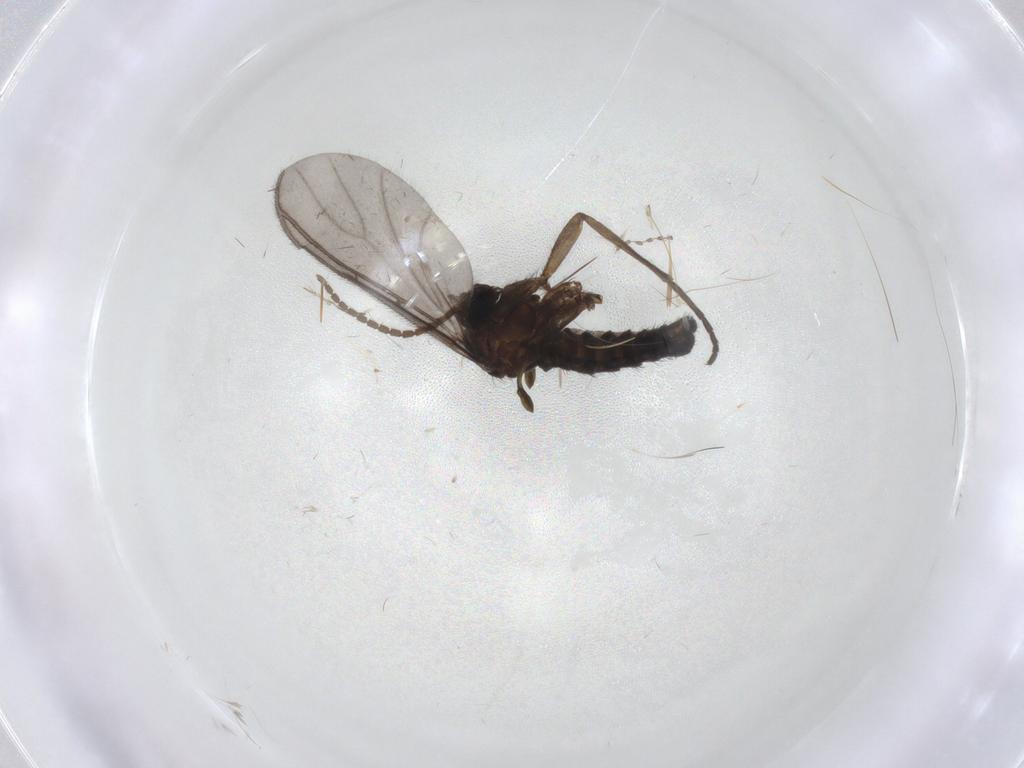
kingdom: Animalia
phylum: Arthropoda
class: Insecta
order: Diptera
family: Sciaridae
